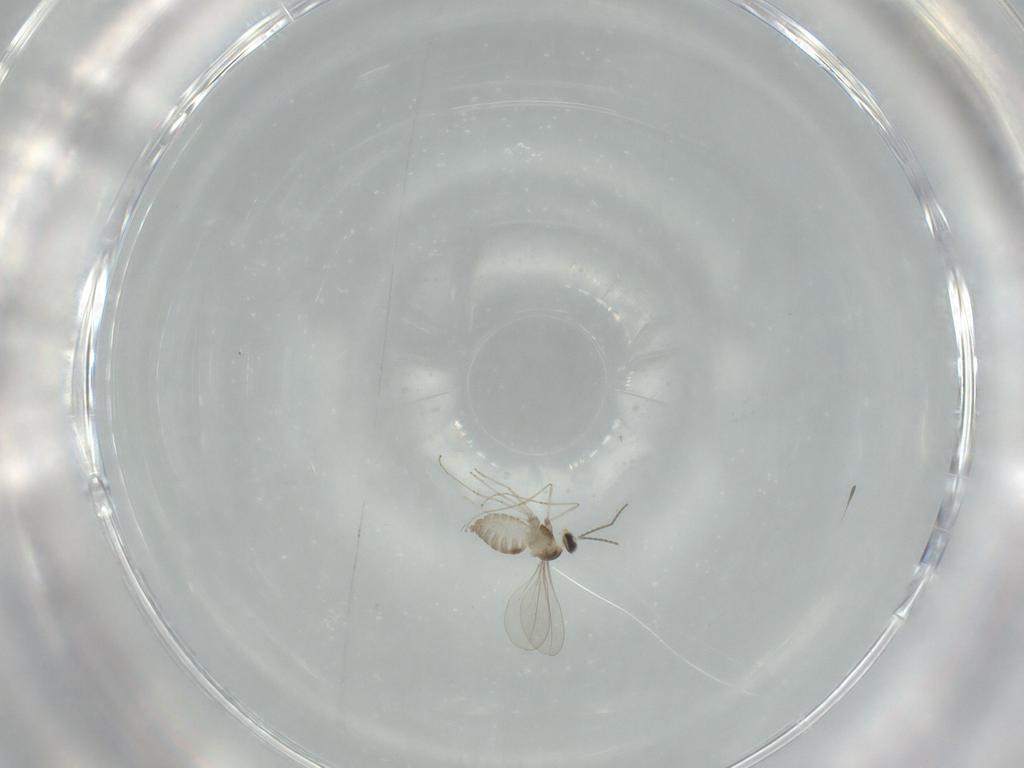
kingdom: Animalia
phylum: Arthropoda
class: Insecta
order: Diptera
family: Cecidomyiidae
